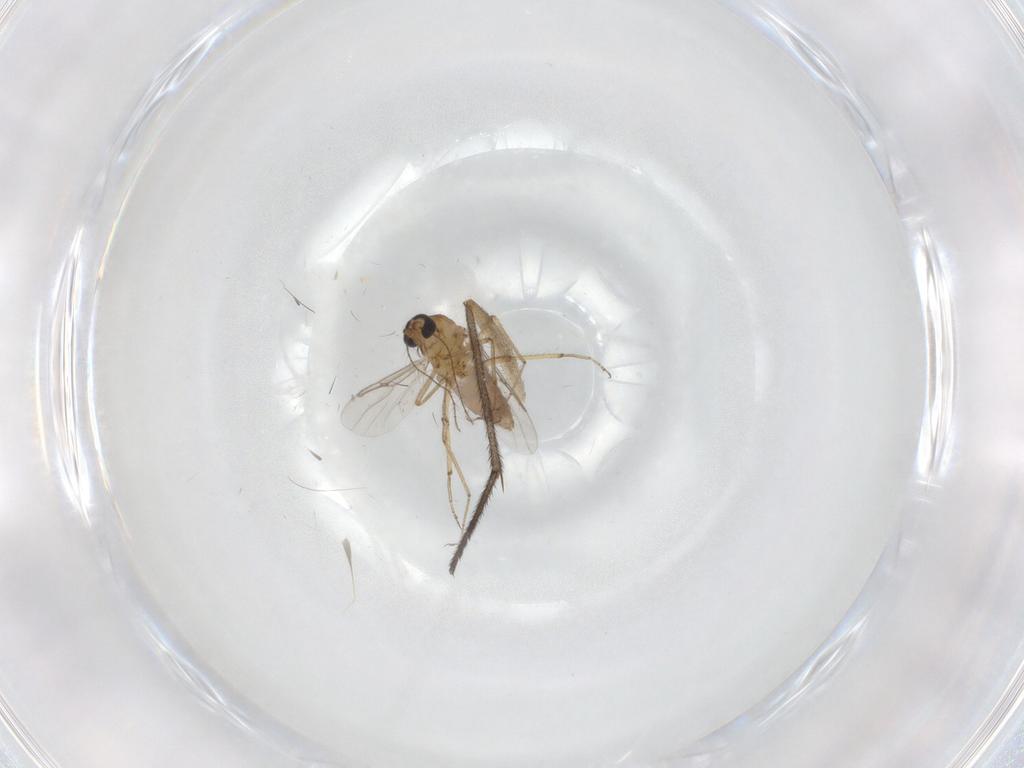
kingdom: Animalia
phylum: Arthropoda
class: Insecta
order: Diptera
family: Sciaridae
